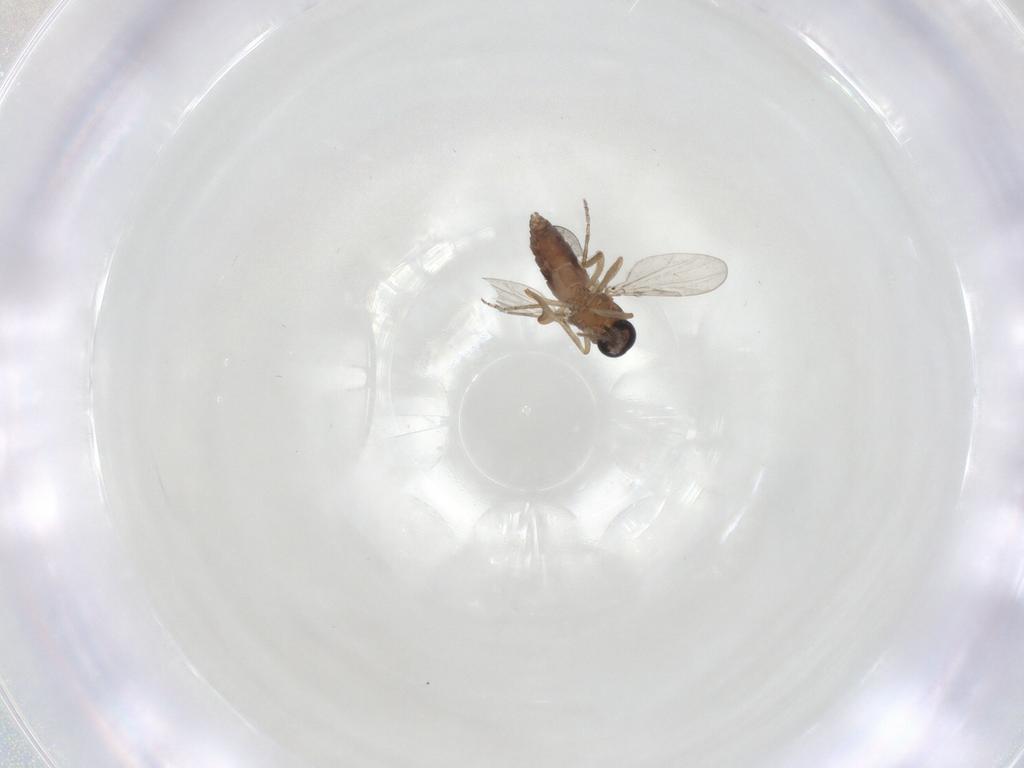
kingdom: Animalia
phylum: Arthropoda
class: Insecta
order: Diptera
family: Ceratopogonidae
